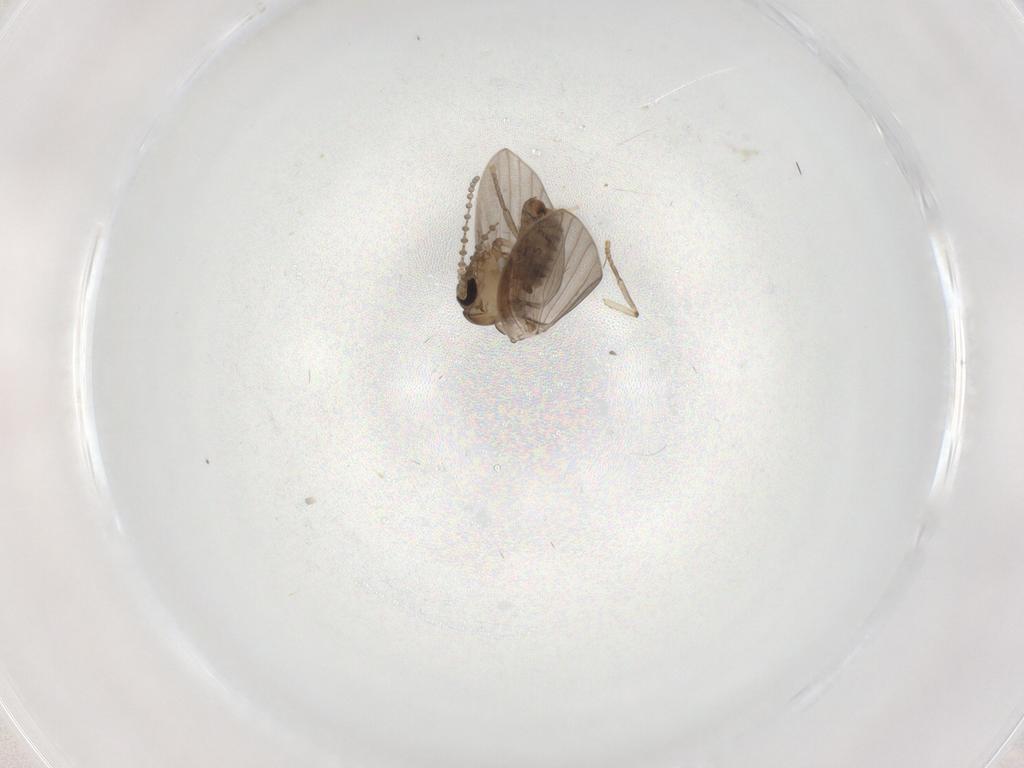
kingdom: Animalia
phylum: Arthropoda
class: Insecta
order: Diptera
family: Psychodidae
